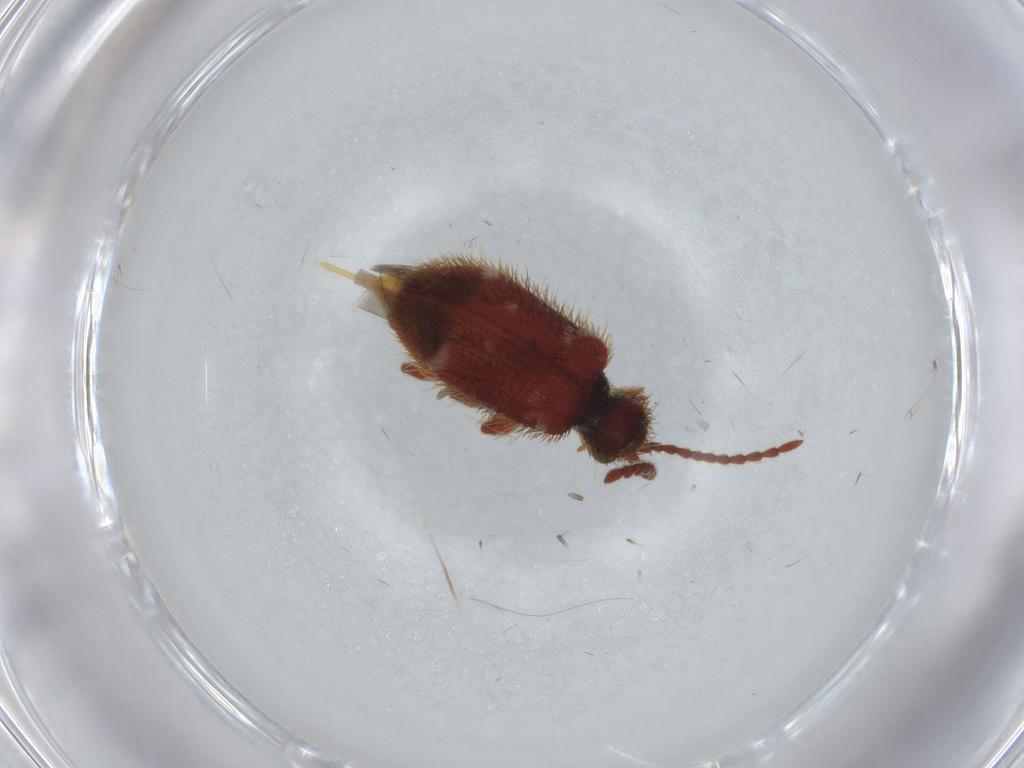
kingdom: Animalia
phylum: Arthropoda
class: Insecta
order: Coleoptera
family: Ptinidae
